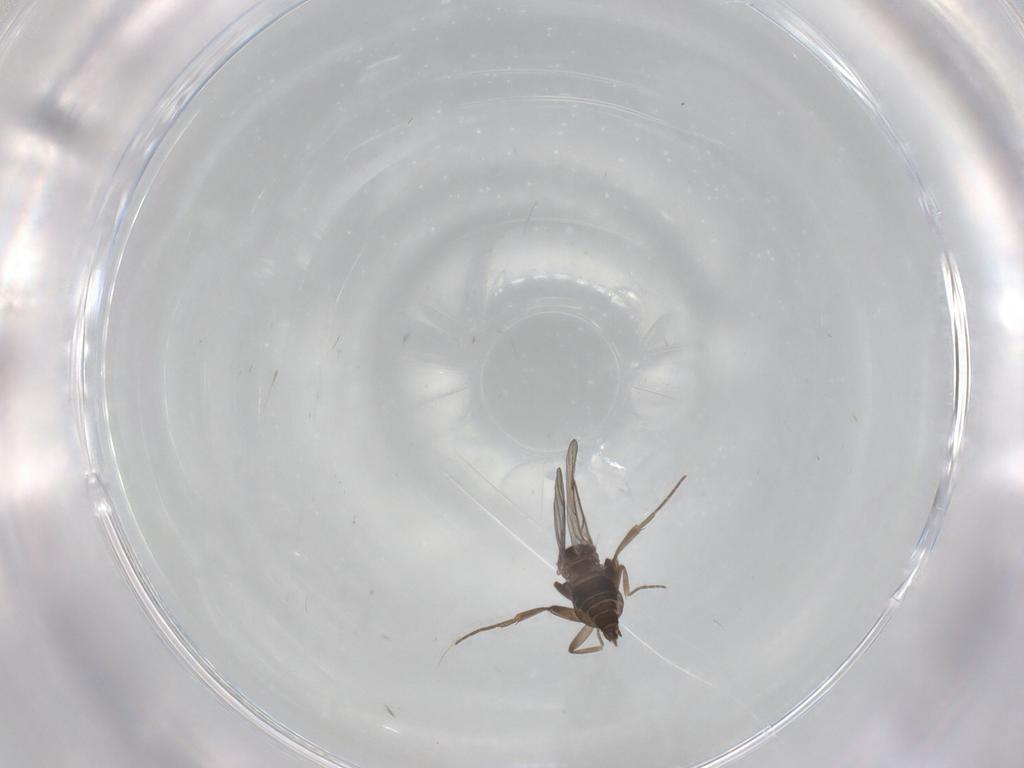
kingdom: Animalia
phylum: Arthropoda
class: Insecta
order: Diptera
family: Phoridae
